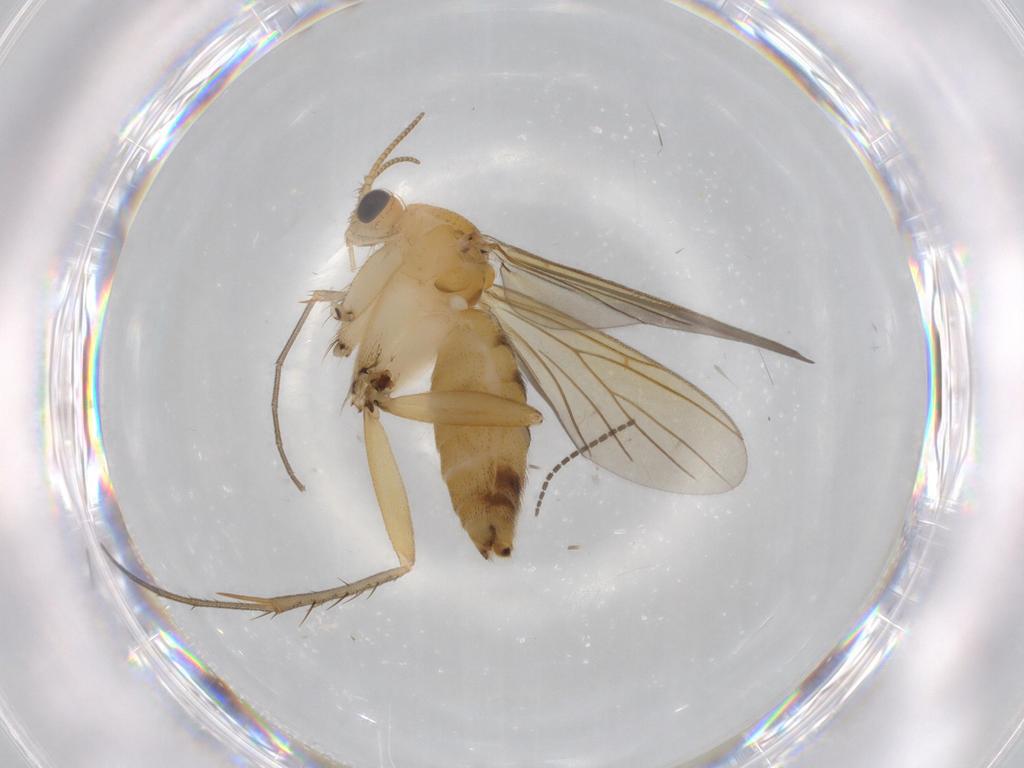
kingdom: Animalia
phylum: Arthropoda
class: Insecta
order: Diptera
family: Mycetophilidae
